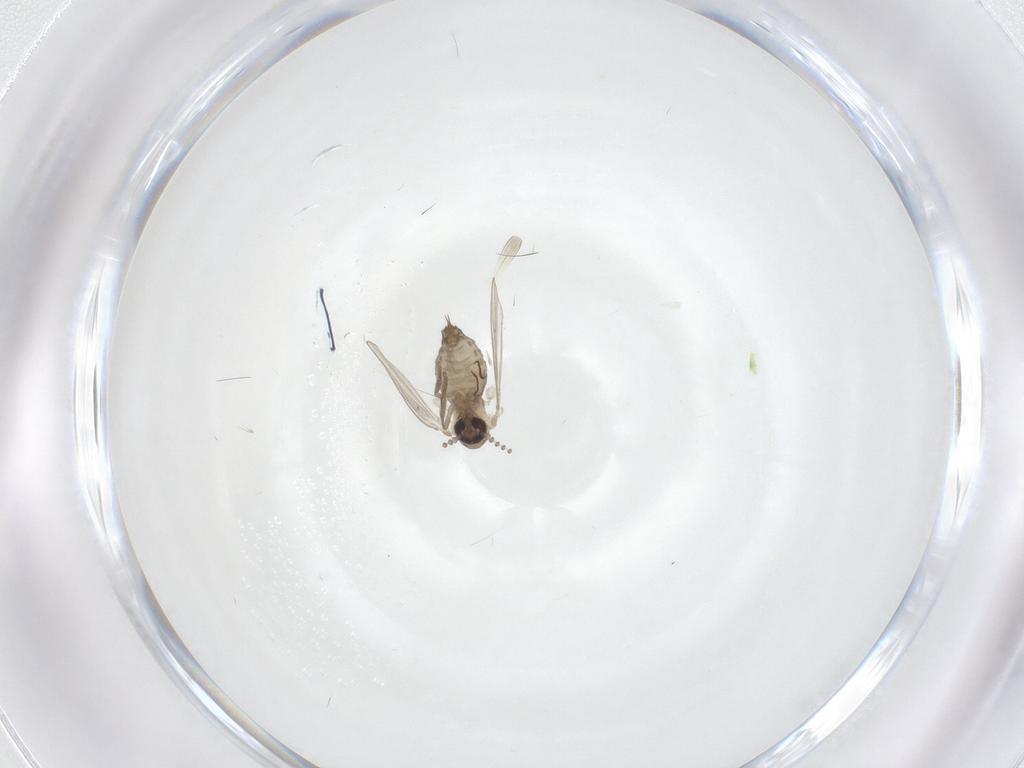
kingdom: Animalia
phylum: Arthropoda
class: Insecta
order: Diptera
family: Psychodidae
